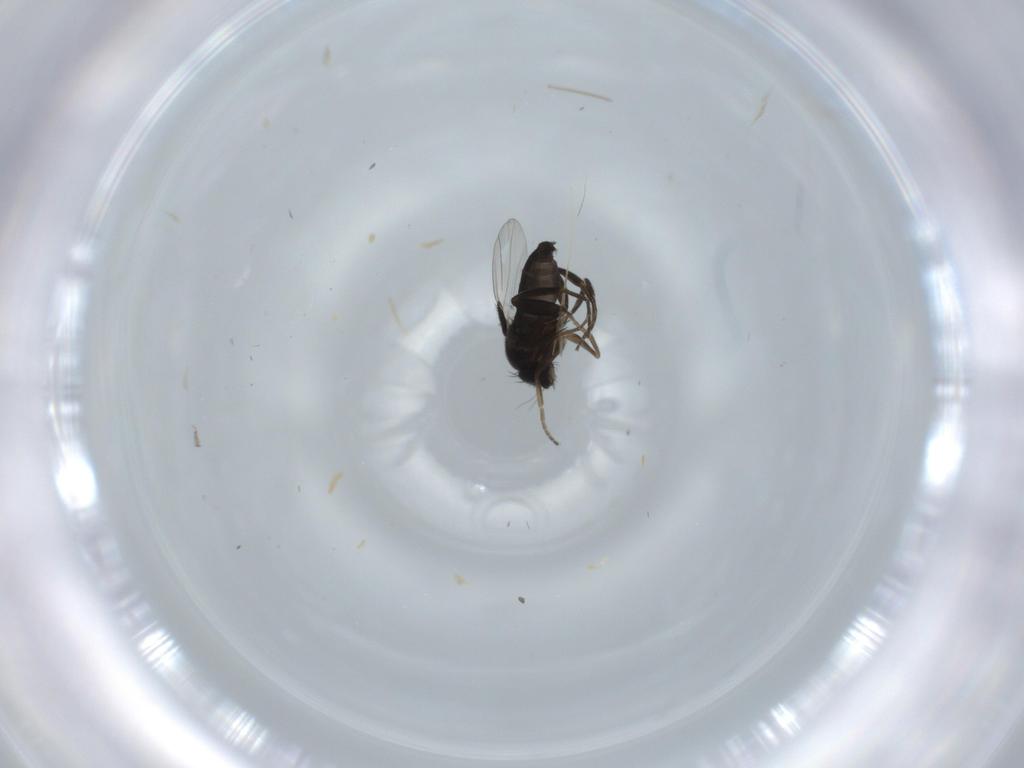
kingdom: Animalia
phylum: Arthropoda
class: Insecta
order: Diptera
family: Phoridae
